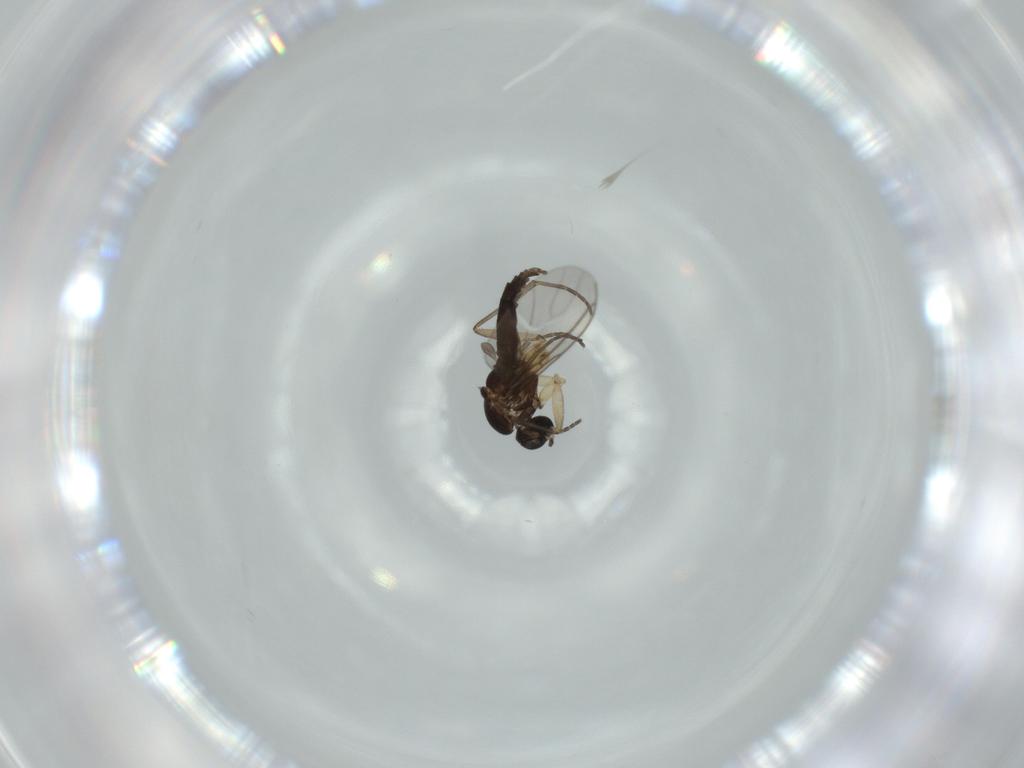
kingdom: Animalia
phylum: Arthropoda
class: Insecta
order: Diptera
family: Sciaridae
